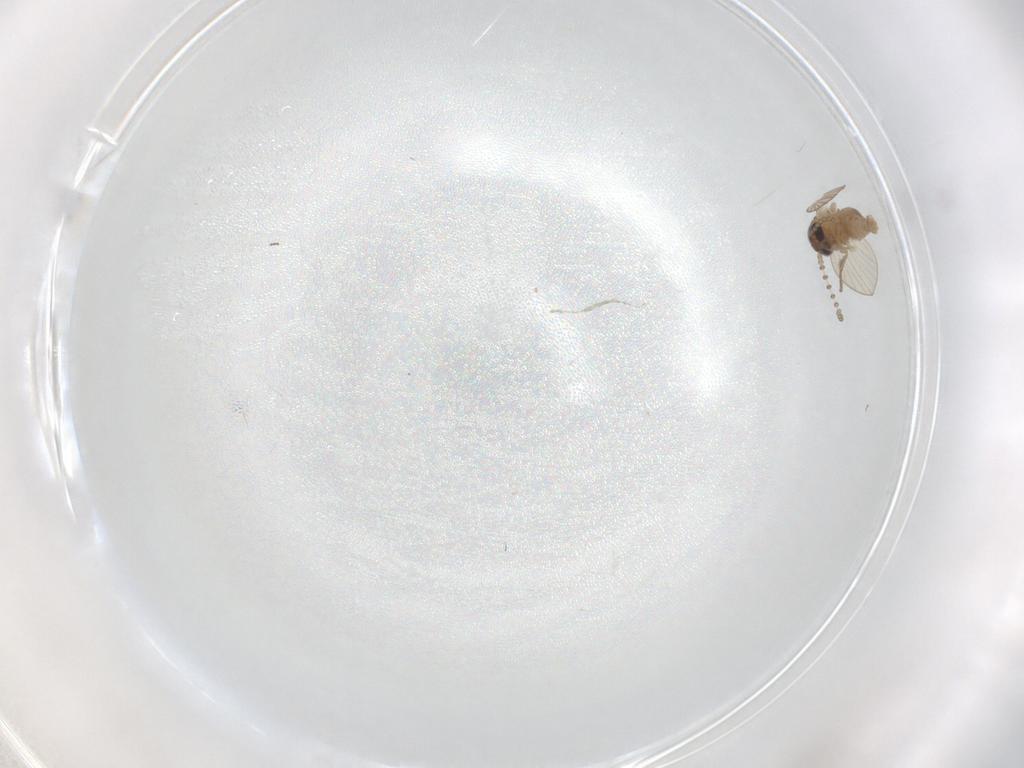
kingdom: Animalia
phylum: Arthropoda
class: Insecta
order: Diptera
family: Psychodidae
